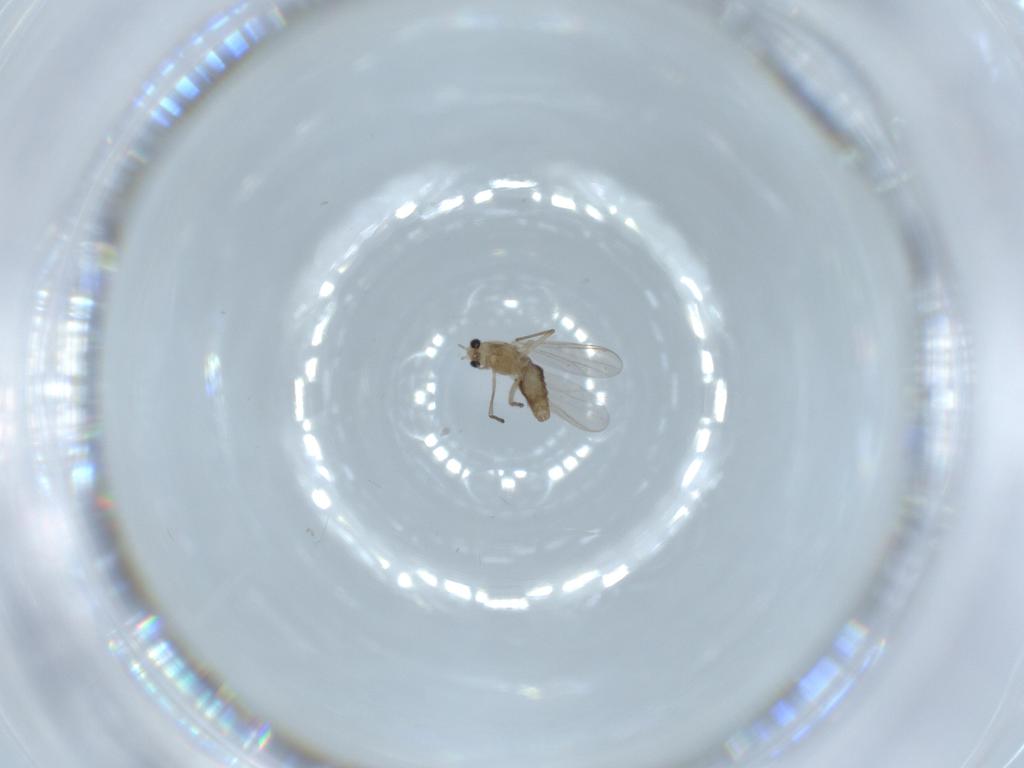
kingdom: Animalia
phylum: Arthropoda
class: Insecta
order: Diptera
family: Chironomidae
